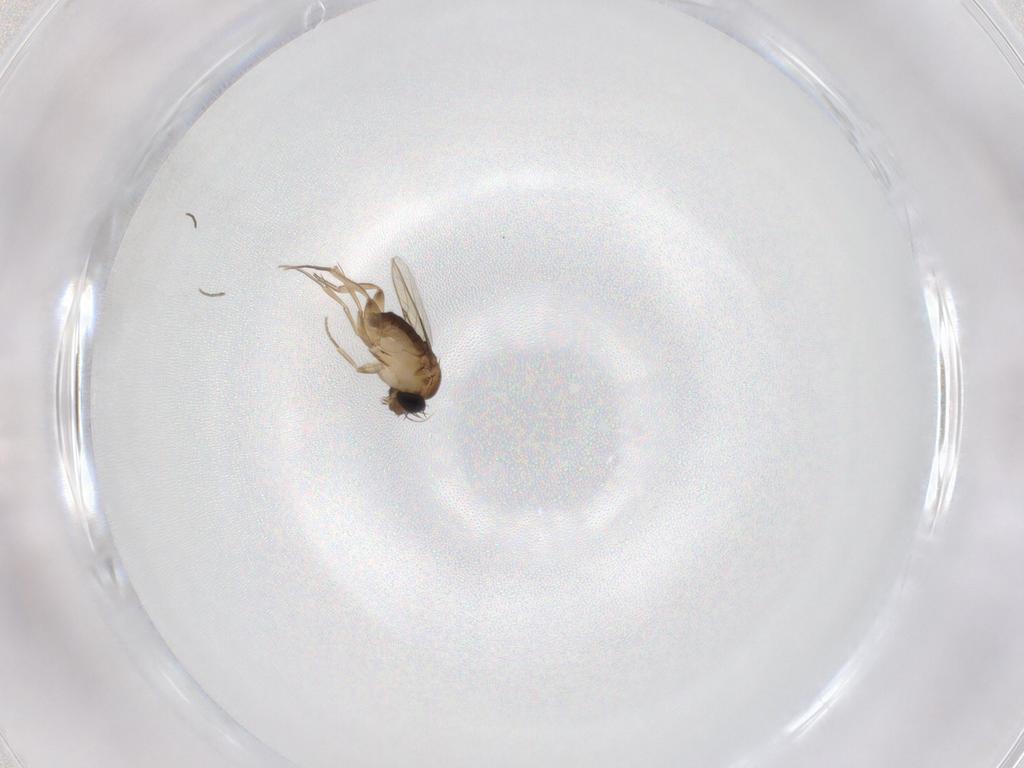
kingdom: Animalia
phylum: Arthropoda
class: Insecta
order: Diptera
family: Phoridae
